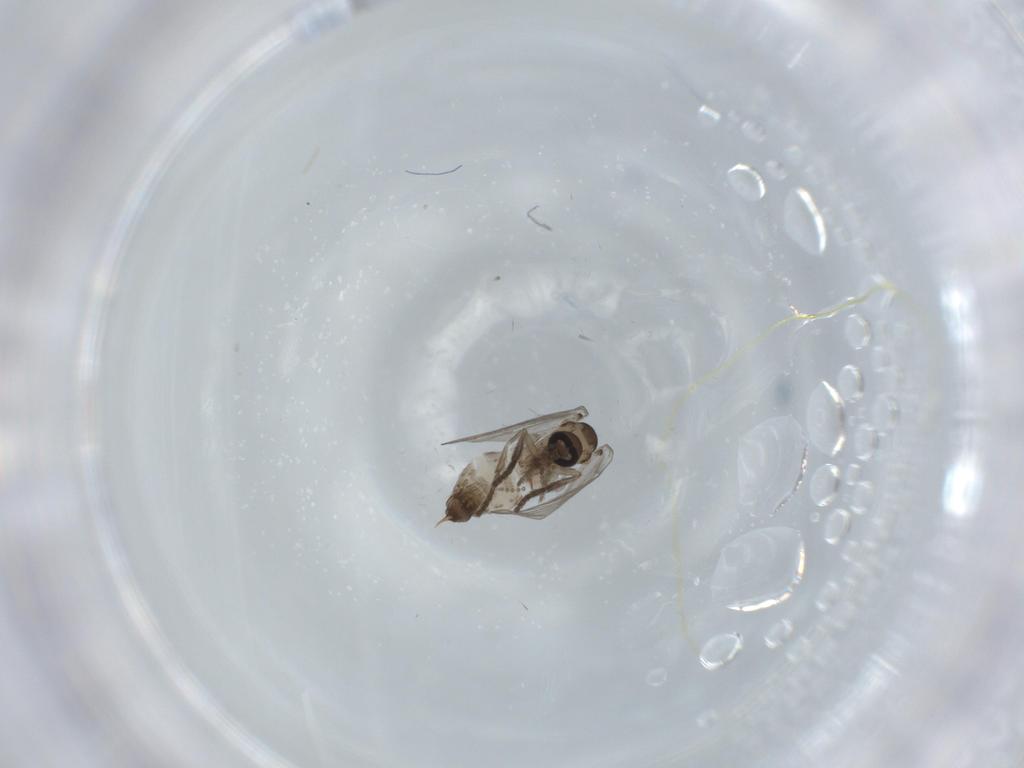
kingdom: Animalia
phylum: Arthropoda
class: Insecta
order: Diptera
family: Psychodidae
